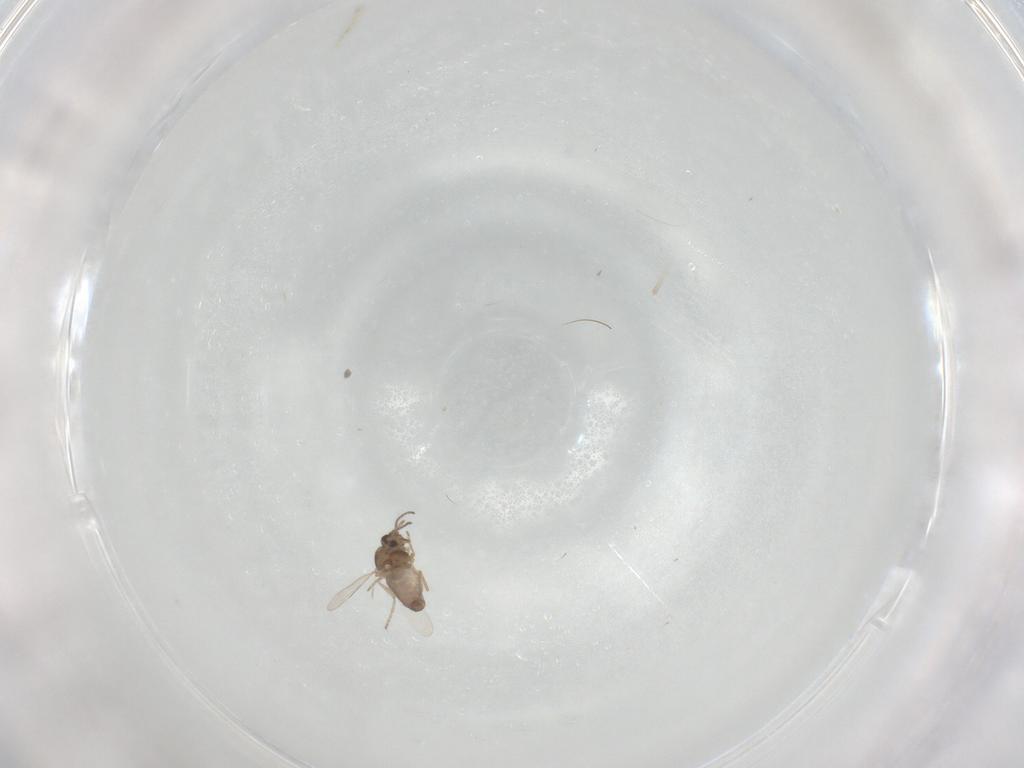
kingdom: Animalia
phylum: Arthropoda
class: Insecta
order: Diptera
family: Ceratopogonidae
